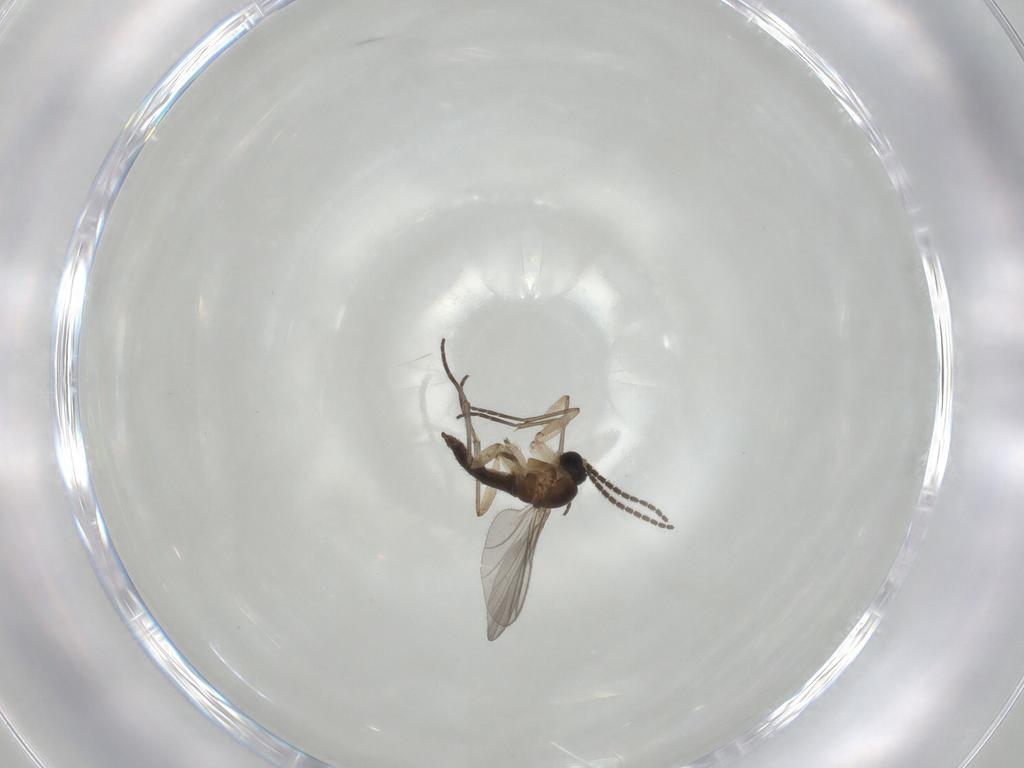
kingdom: Animalia
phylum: Arthropoda
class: Insecta
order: Diptera
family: Sciaridae
